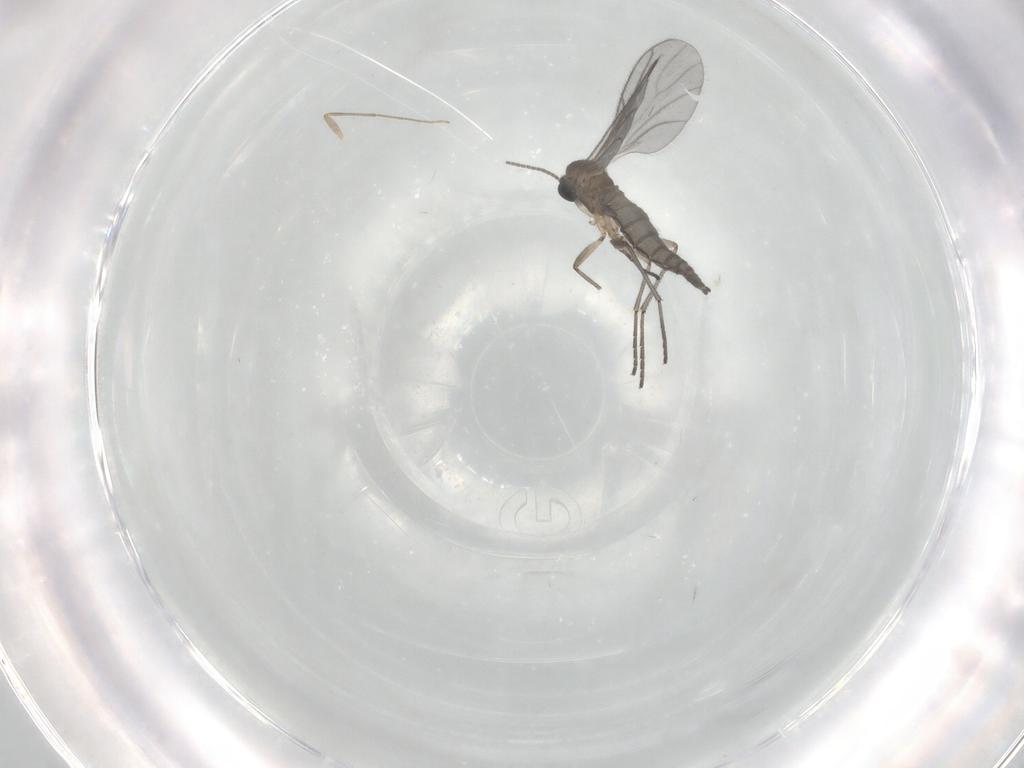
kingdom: Animalia
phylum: Arthropoda
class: Insecta
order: Diptera
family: Sciaridae
